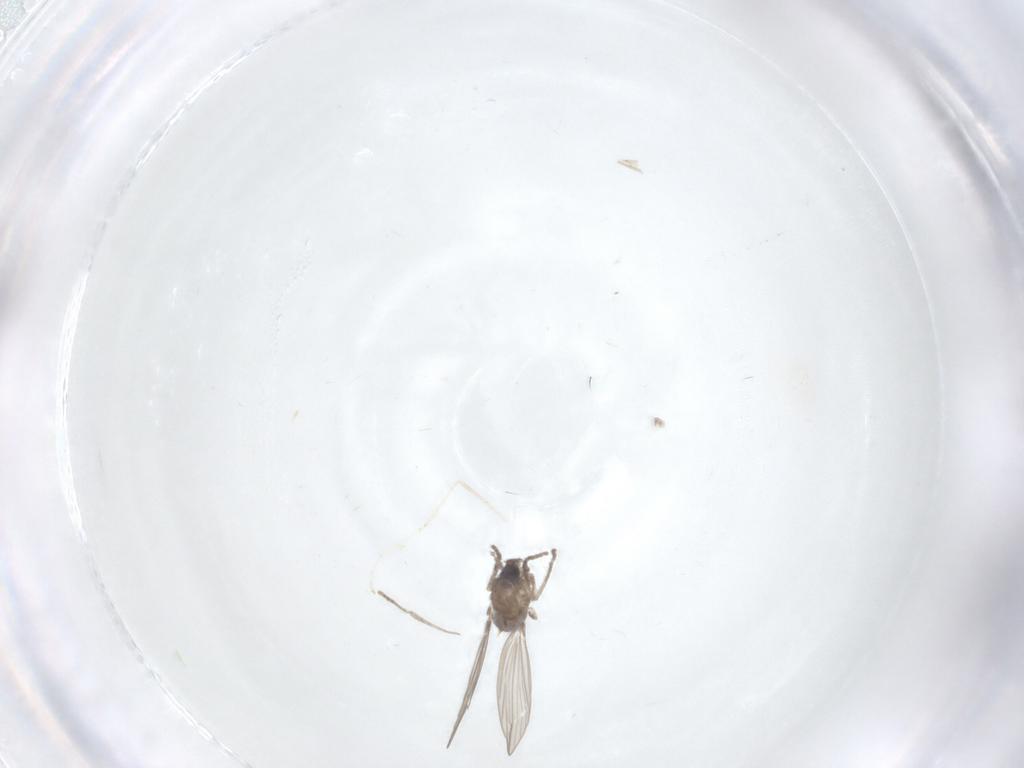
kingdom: Animalia
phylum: Arthropoda
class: Insecta
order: Diptera
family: Psychodidae
